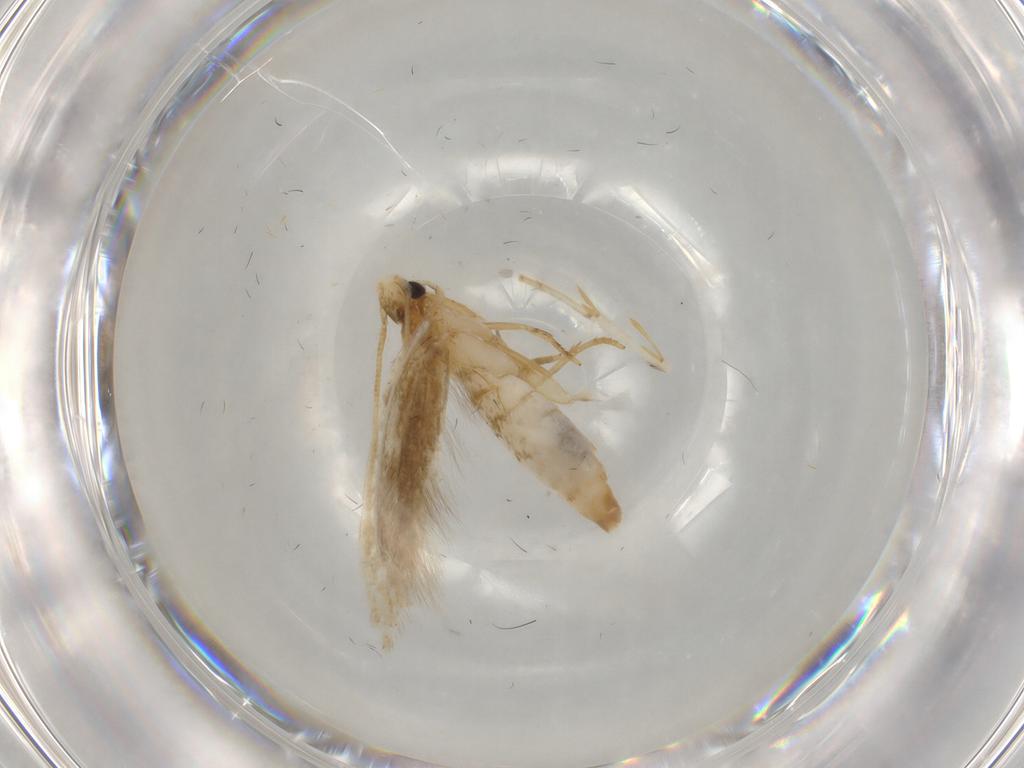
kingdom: Animalia
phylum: Arthropoda
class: Insecta
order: Lepidoptera
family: Tineidae
